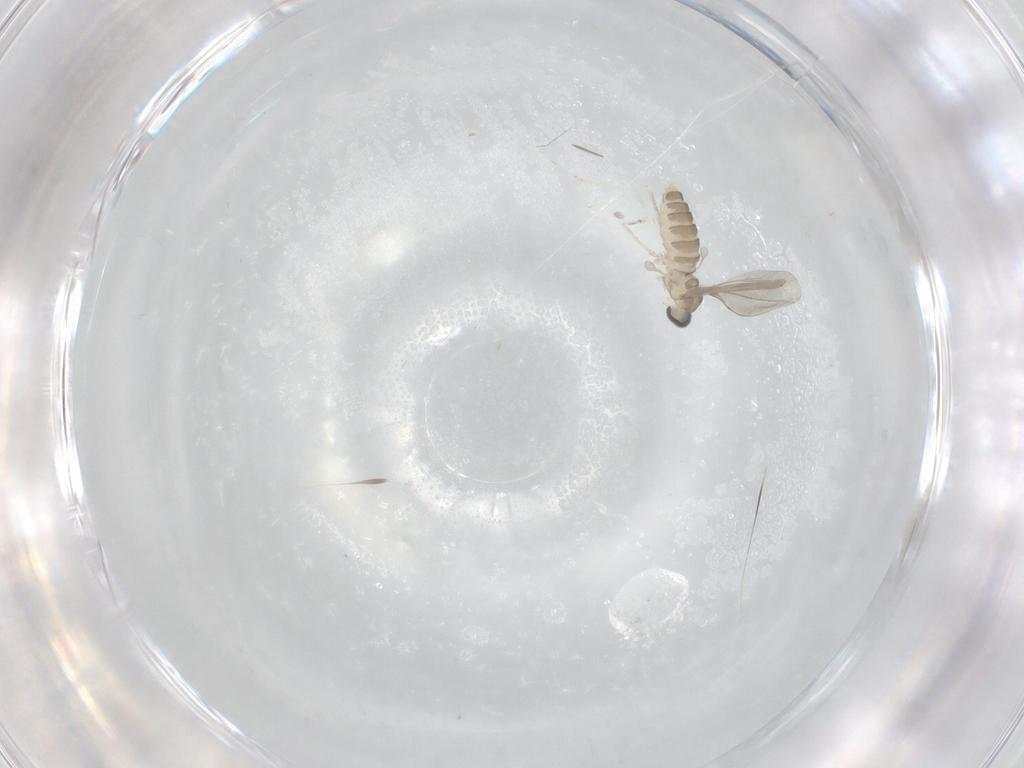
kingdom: Animalia
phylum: Arthropoda
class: Insecta
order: Diptera
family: Cecidomyiidae
